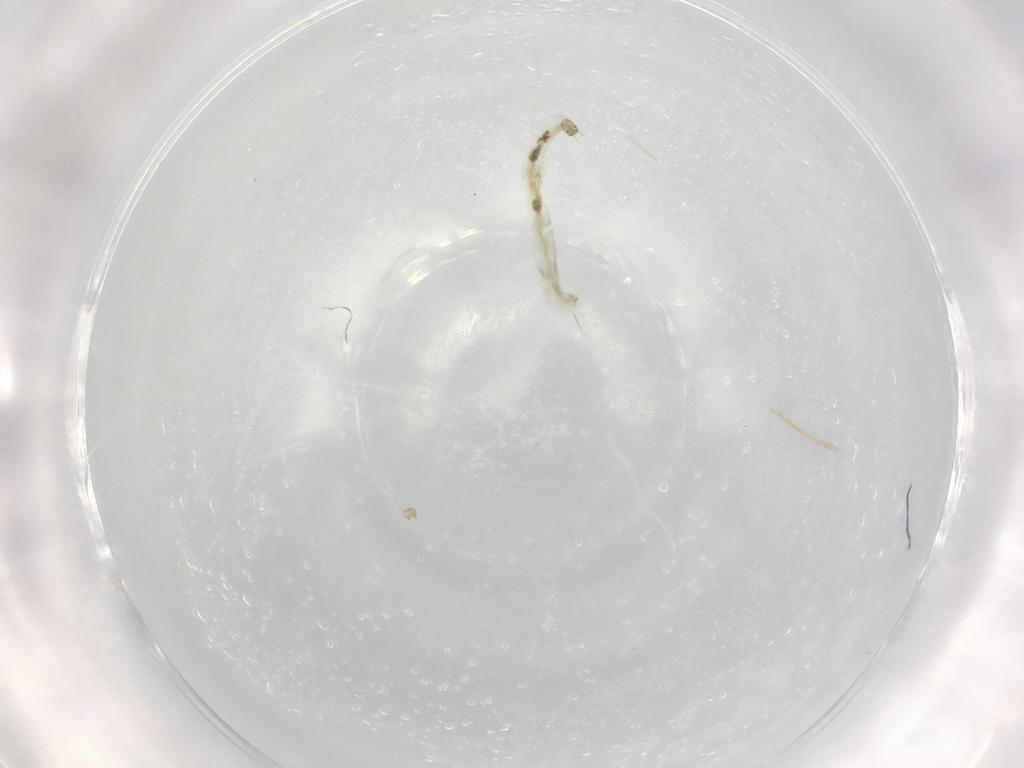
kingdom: Animalia
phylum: Arthropoda
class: Insecta
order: Diptera
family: Chironomidae
